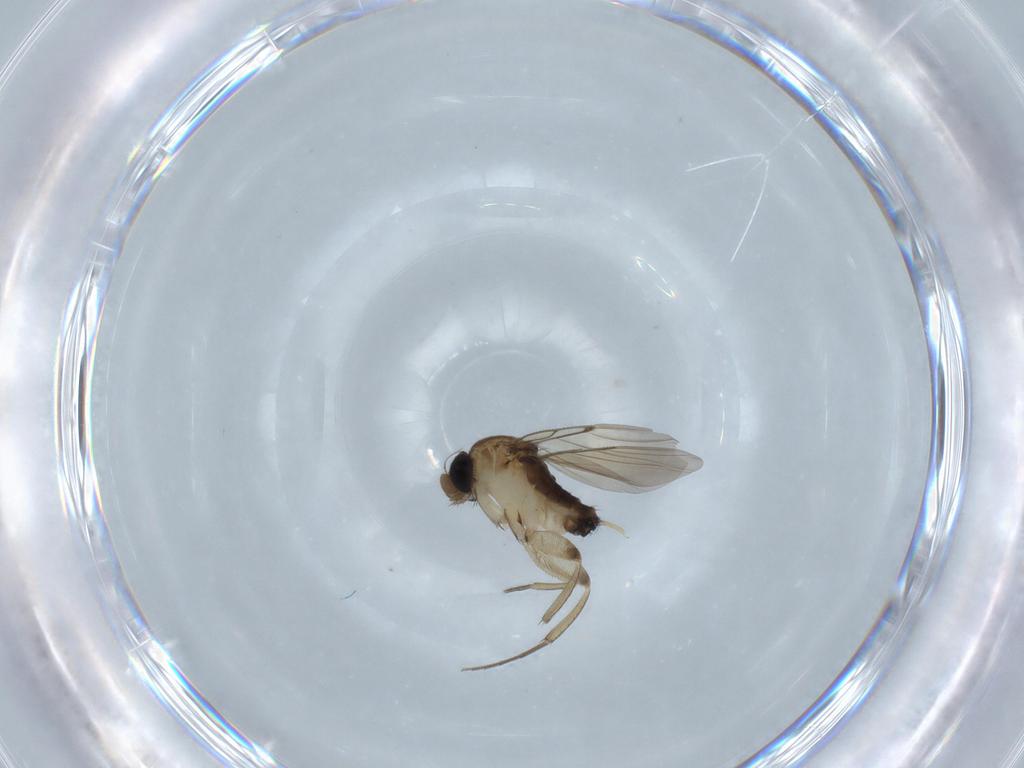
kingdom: Animalia
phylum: Arthropoda
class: Insecta
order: Diptera
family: Phoridae
